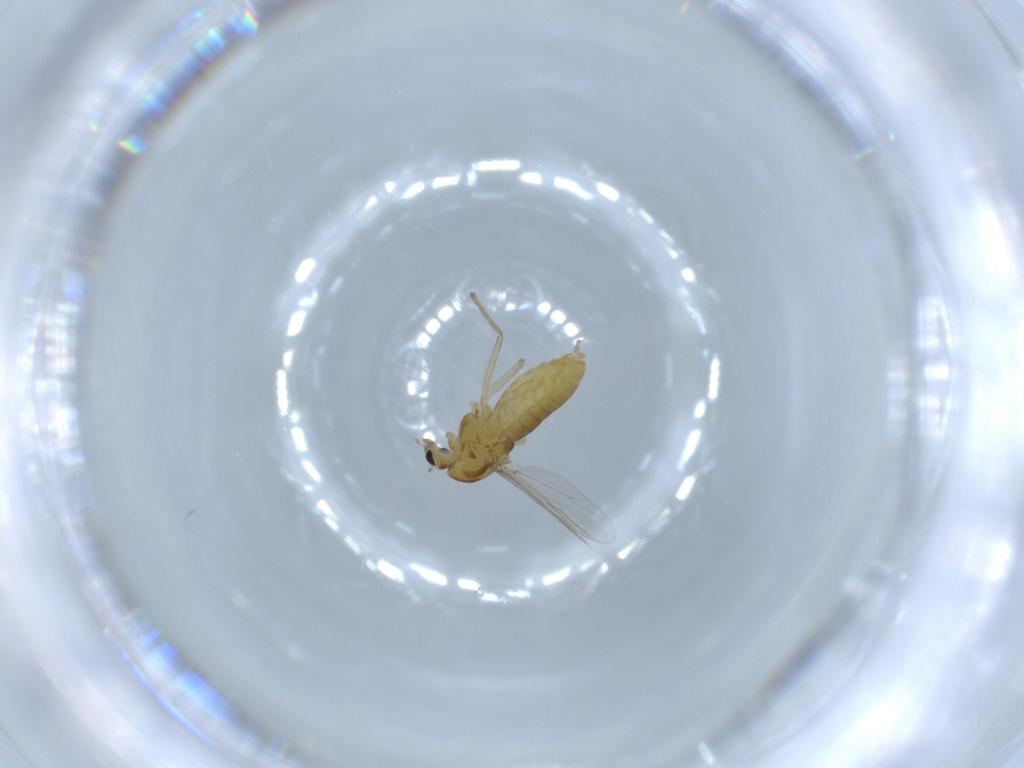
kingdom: Animalia
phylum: Arthropoda
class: Insecta
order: Diptera
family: Chironomidae
